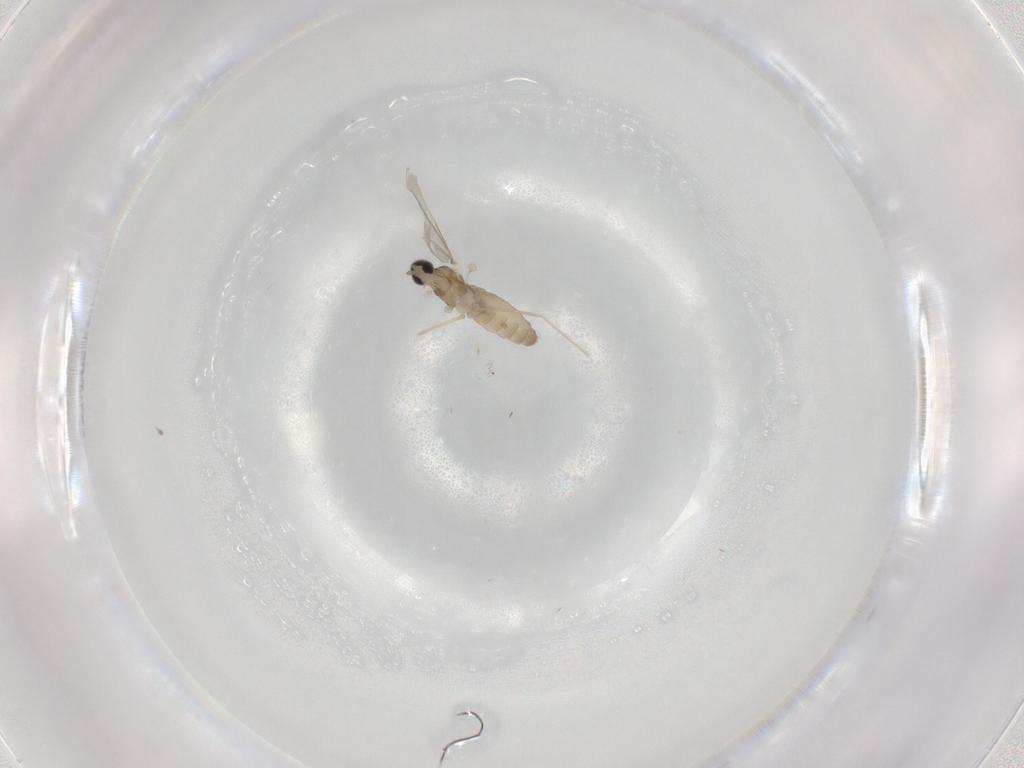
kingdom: Animalia
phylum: Arthropoda
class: Insecta
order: Diptera
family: Cecidomyiidae
